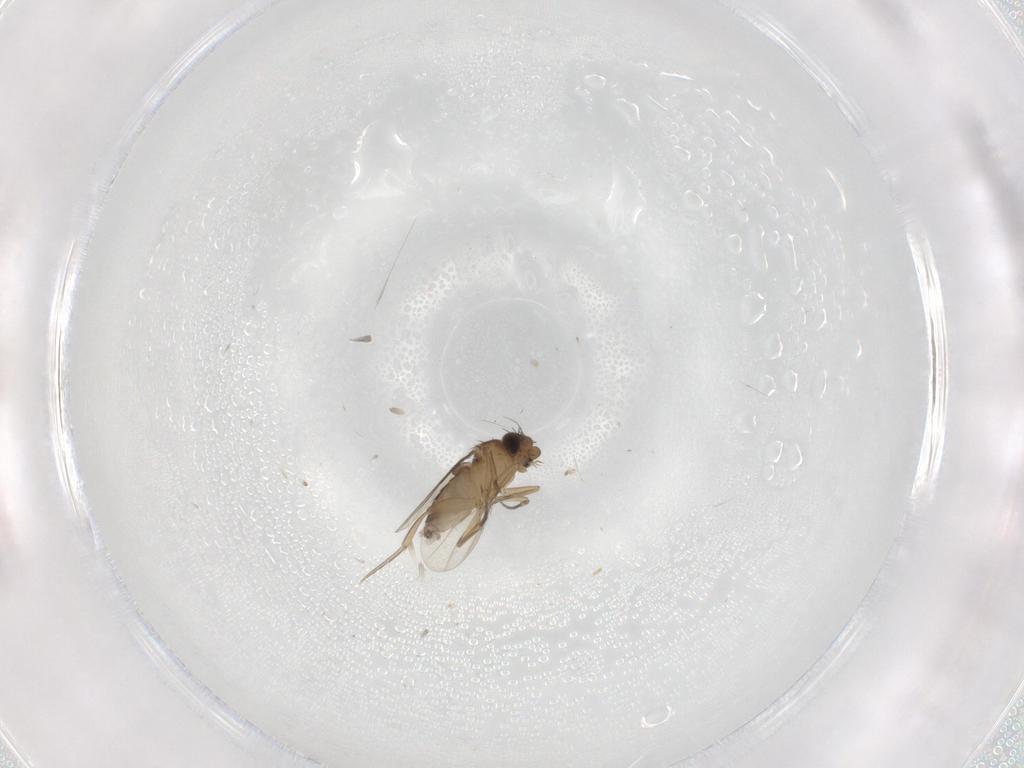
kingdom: Animalia
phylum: Arthropoda
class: Insecta
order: Diptera
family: Phoridae
